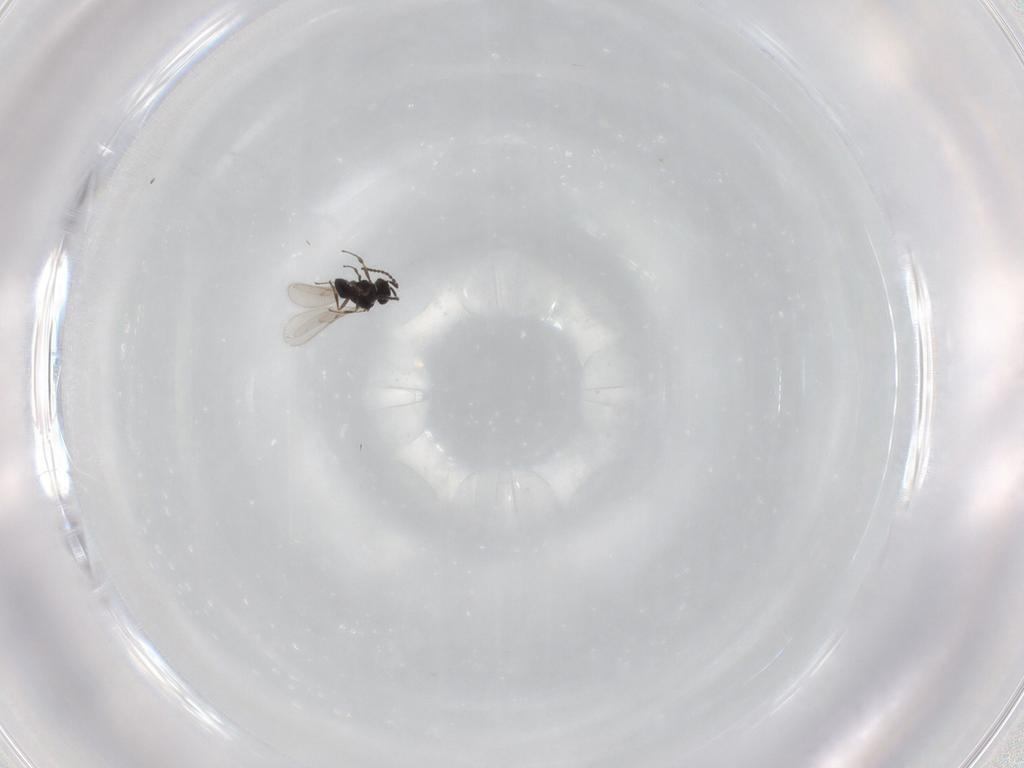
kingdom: Animalia
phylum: Arthropoda
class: Insecta
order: Hymenoptera
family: Scelionidae
